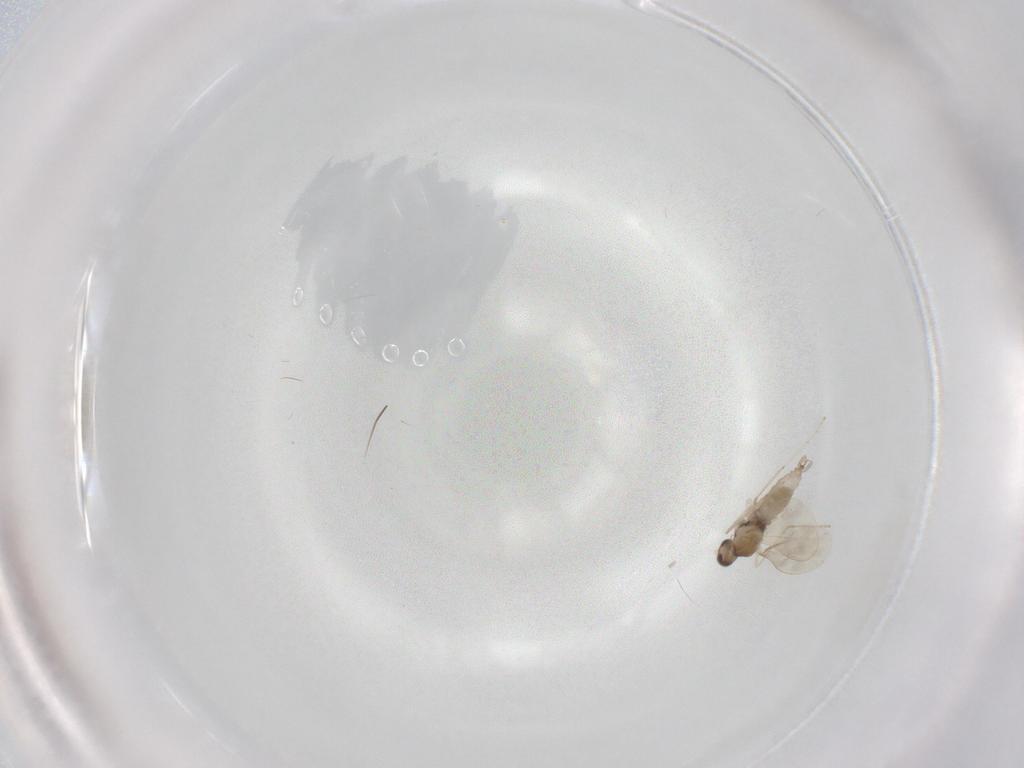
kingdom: Animalia
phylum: Arthropoda
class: Insecta
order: Diptera
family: Cecidomyiidae
